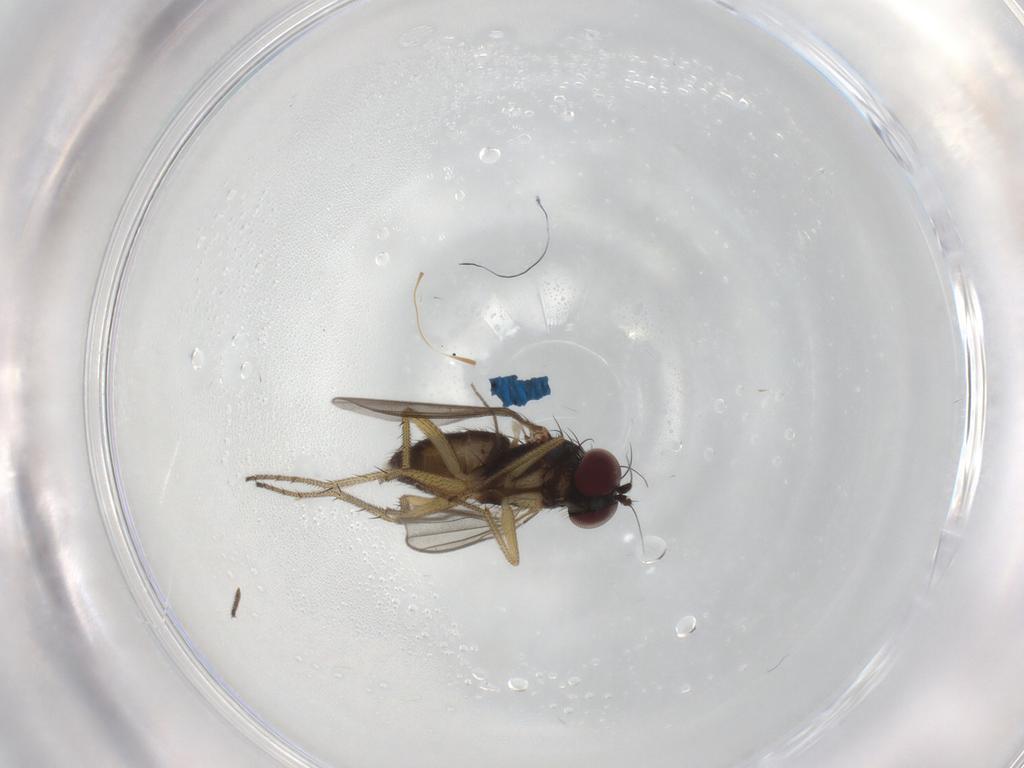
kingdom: Animalia
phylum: Arthropoda
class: Insecta
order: Diptera
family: Dolichopodidae
